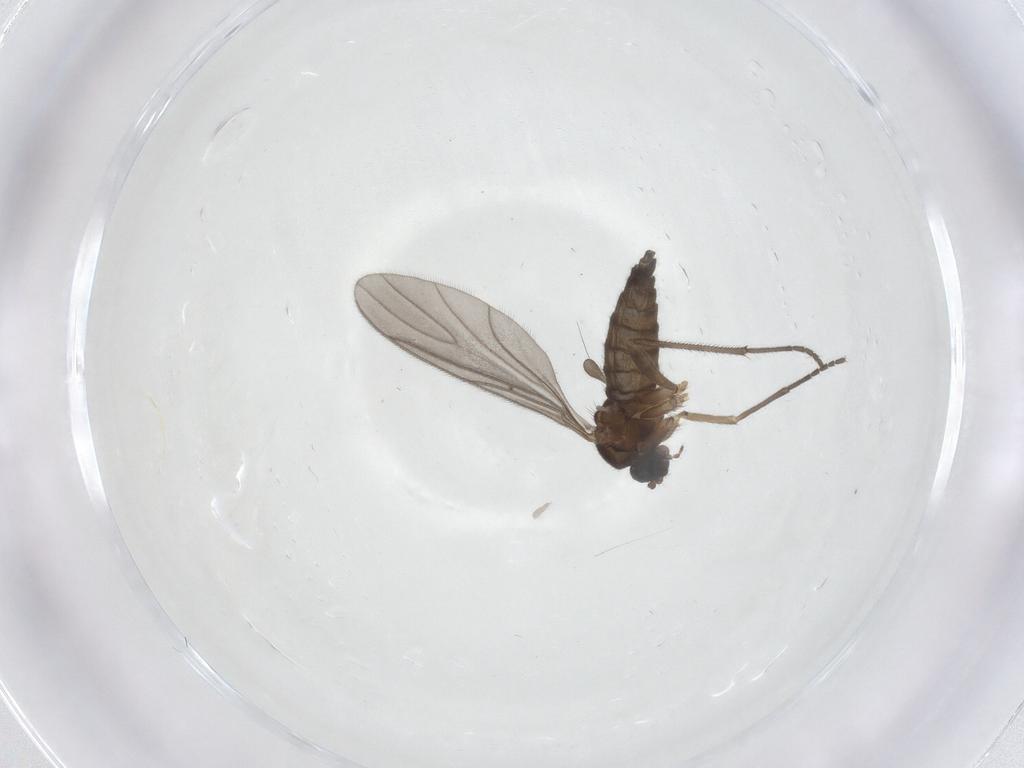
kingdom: Animalia
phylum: Arthropoda
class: Insecta
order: Diptera
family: Sciaridae
